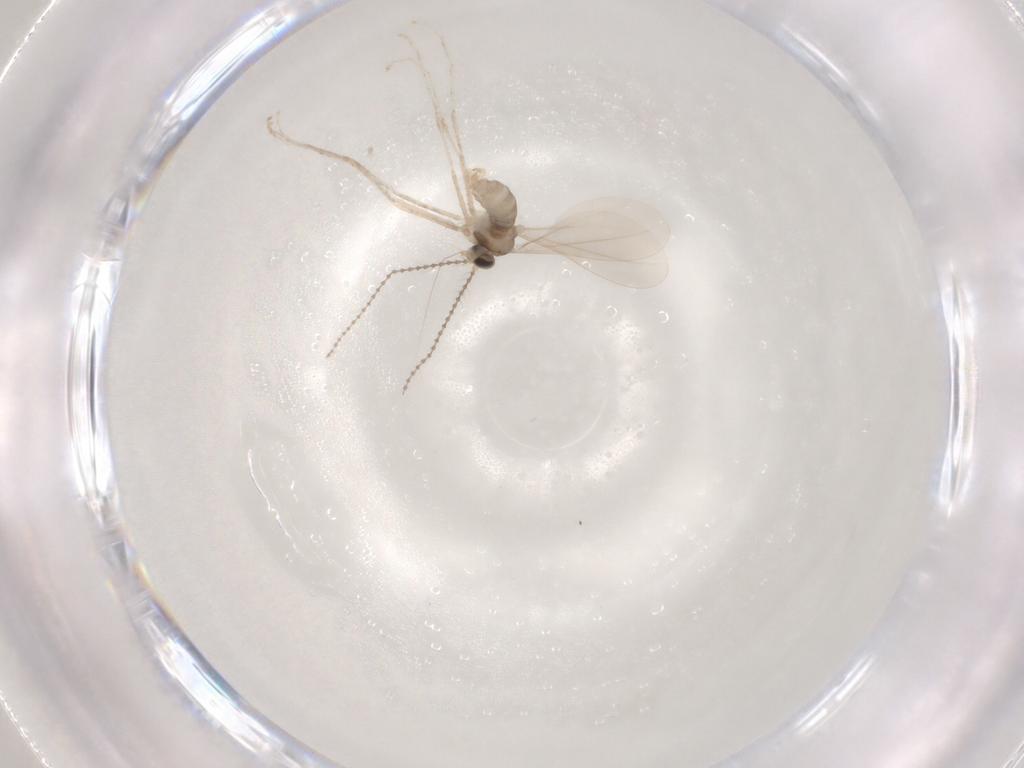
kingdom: Animalia
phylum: Arthropoda
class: Insecta
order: Diptera
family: Cecidomyiidae
